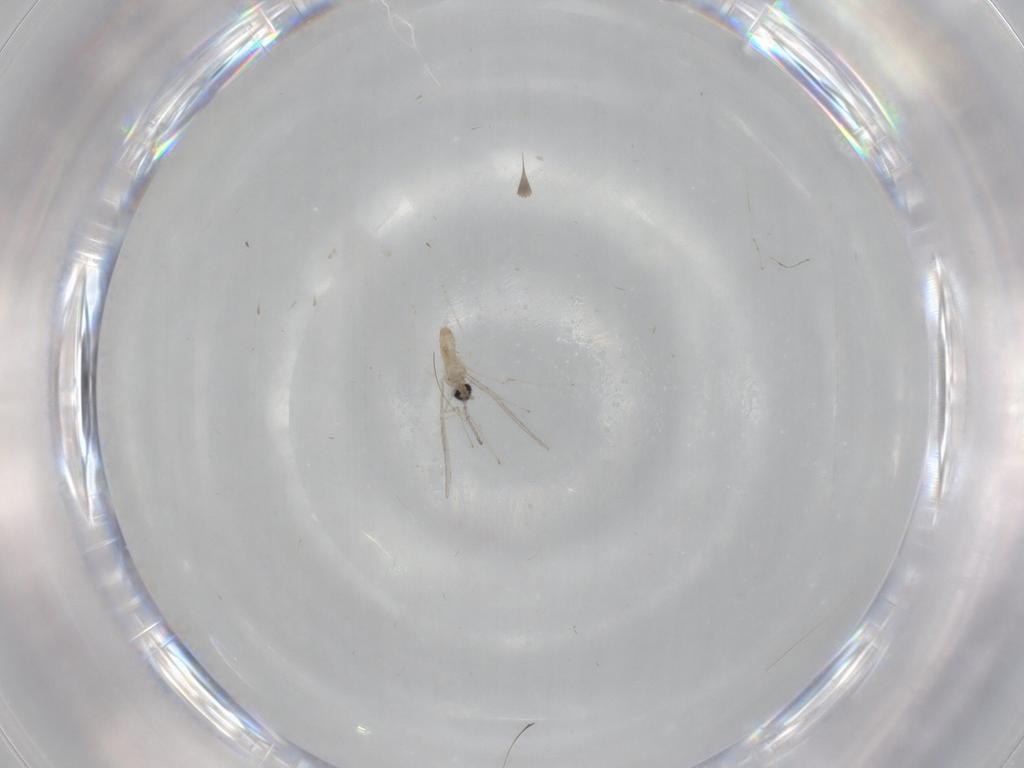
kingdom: Animalia
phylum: Arthropoda
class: Insecta
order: Diptera
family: Cecidomyiidae
